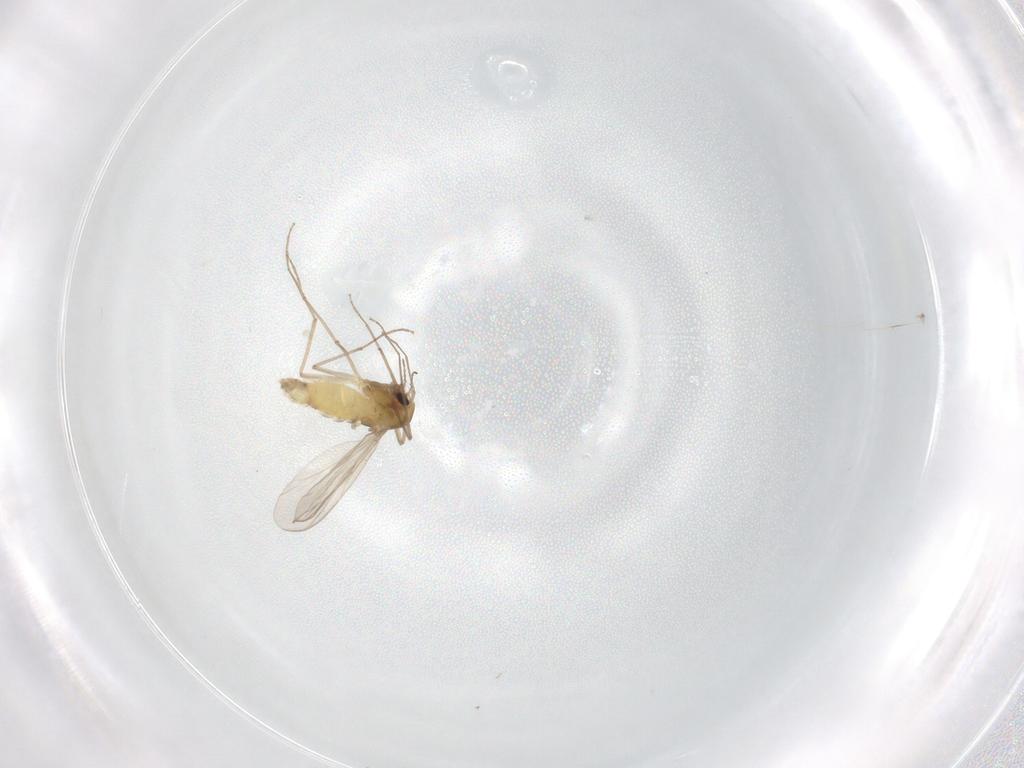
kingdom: Animalia
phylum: Arthropoda
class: Insecta
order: Diptera
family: Chironomidae
